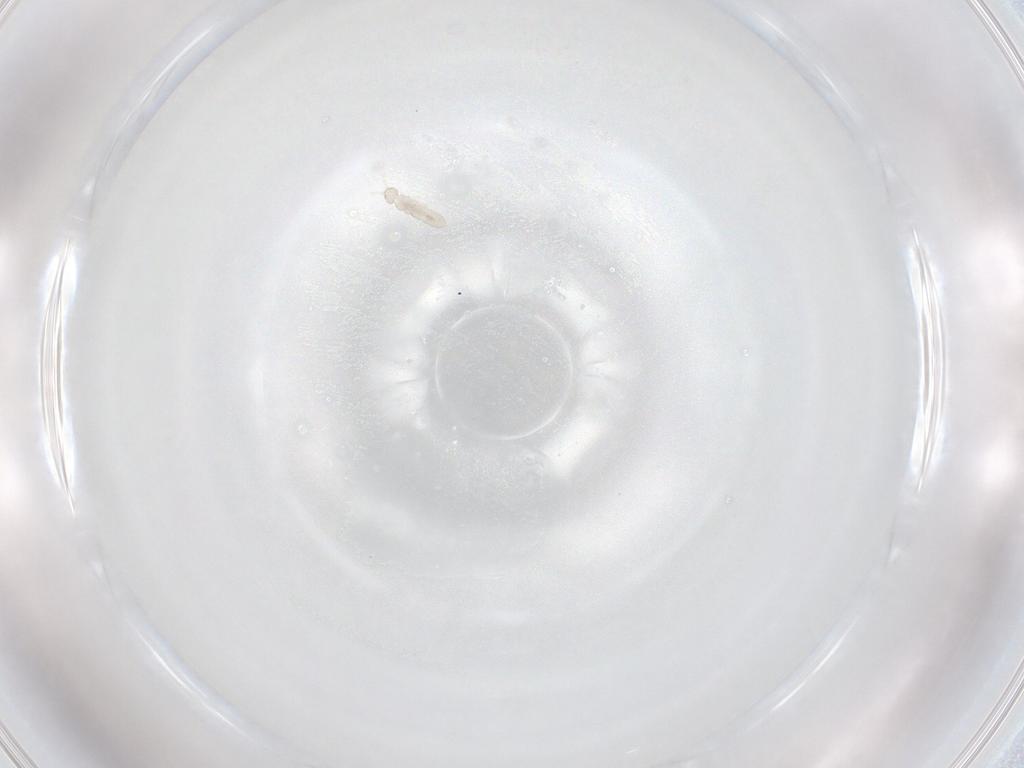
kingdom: Animalia
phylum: Arthropoda
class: Collembola
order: Entomobryomorpha
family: Isotomidae
